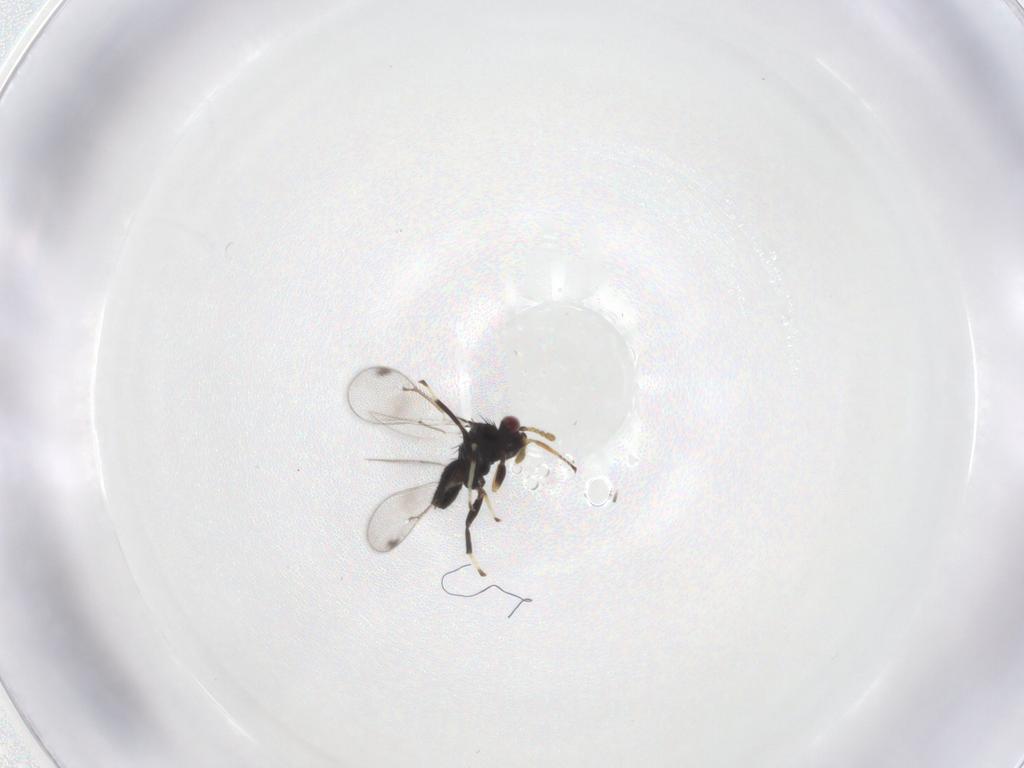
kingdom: Animalia
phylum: Arthropoda
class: Insecta
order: Hymenoptera
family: Eulophidae
